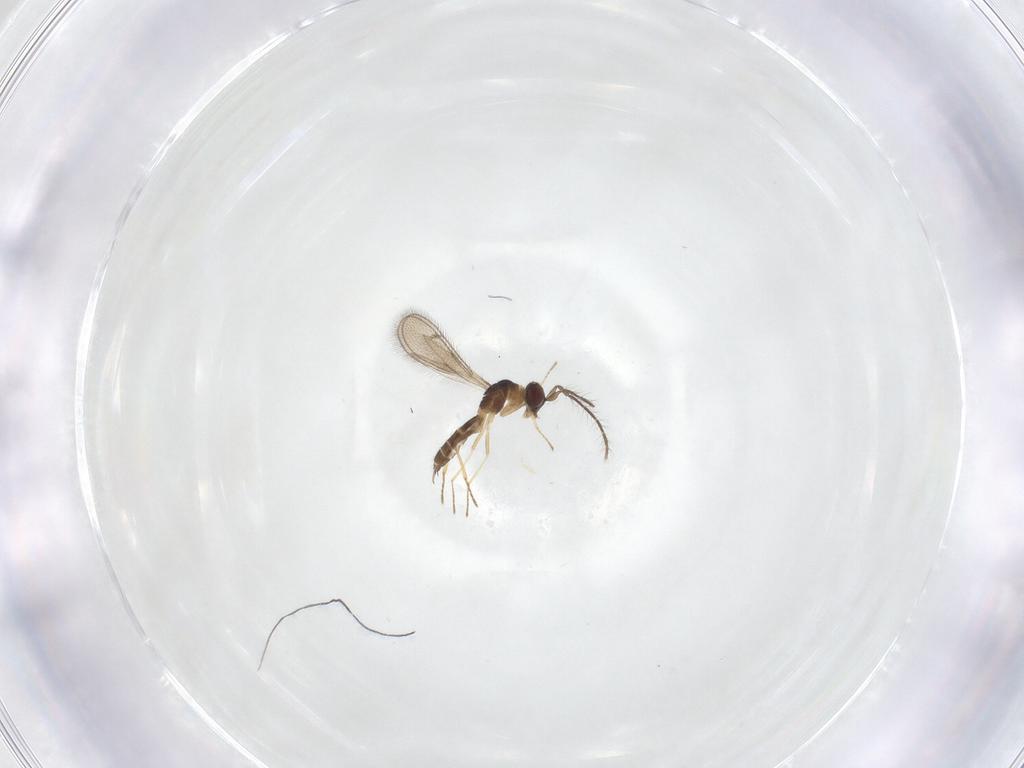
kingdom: Animalia
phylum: Arthropoda
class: Insecta
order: Hymenoptera
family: Eulophidae
